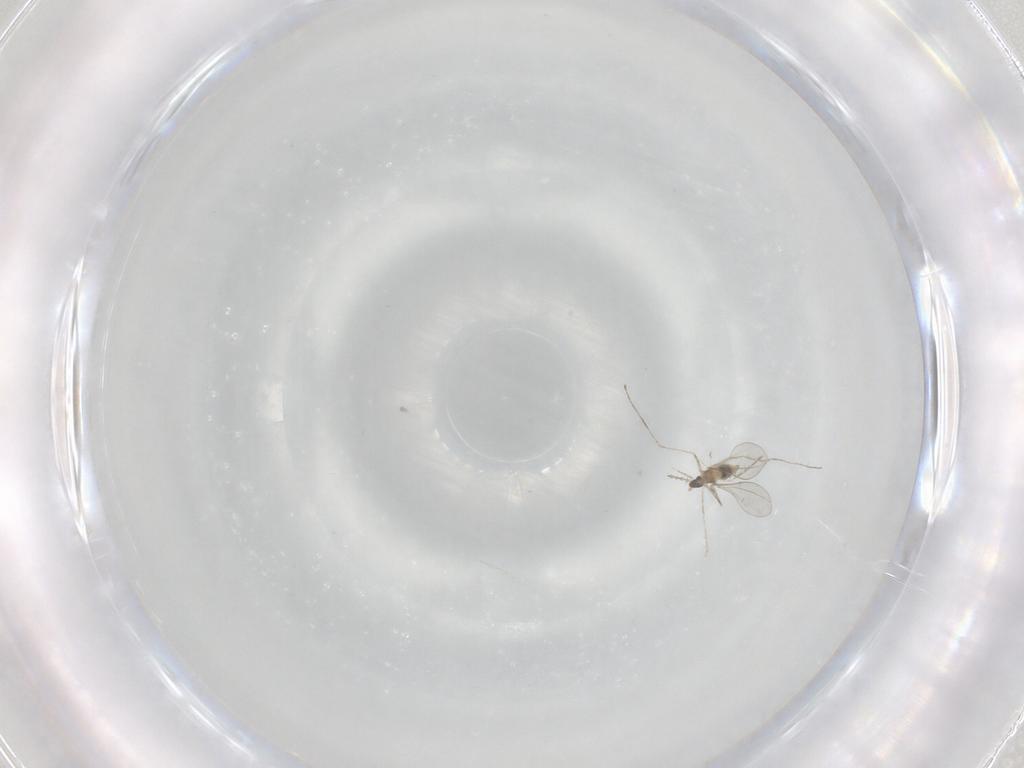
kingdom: Animalia
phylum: Arthropoda
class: Insecta
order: Diptera
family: Cecidomyiidae
